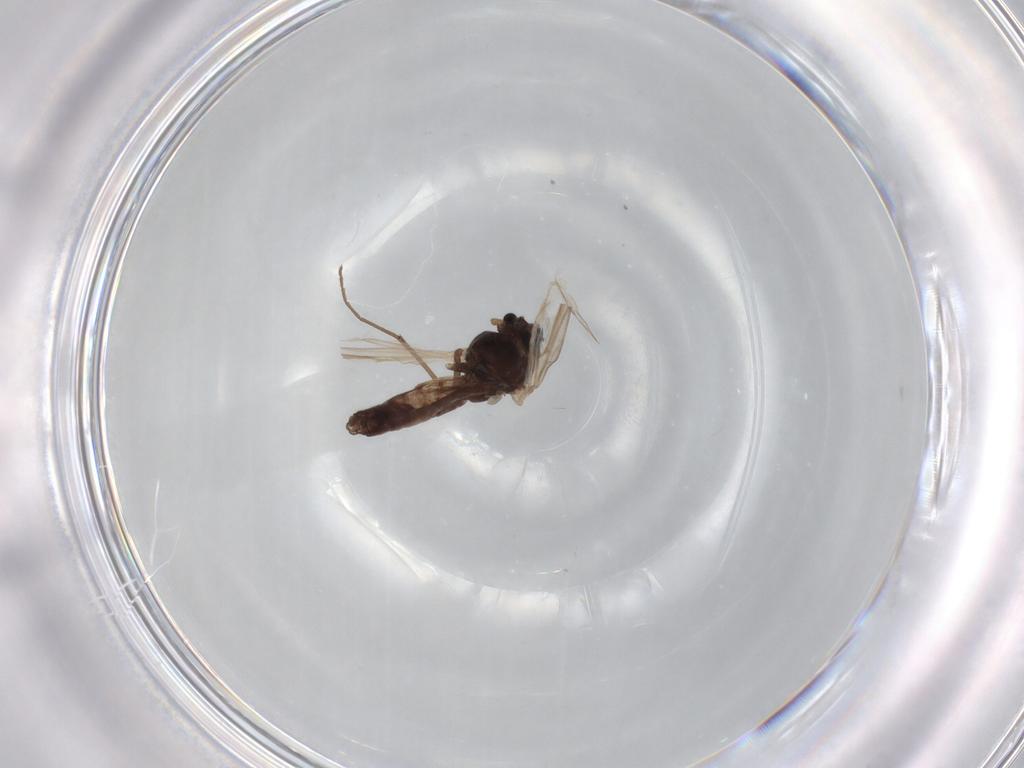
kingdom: Animalia
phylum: Arthropoda
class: Insecta
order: Diptera
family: Chironomidae
